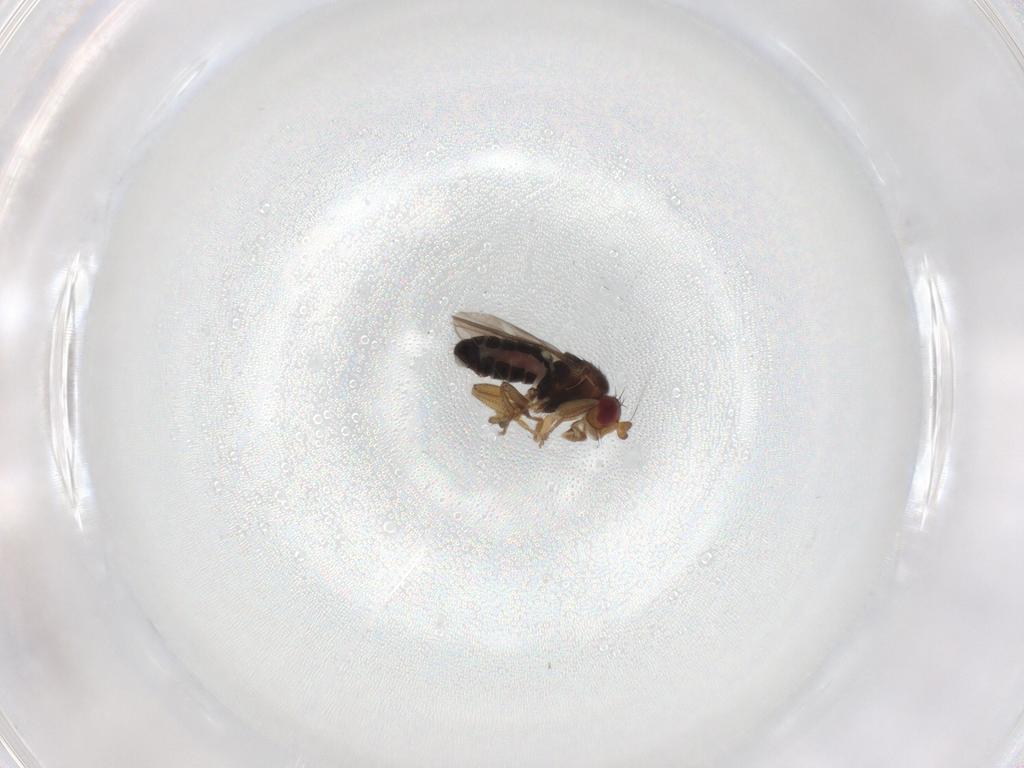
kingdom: Animalia
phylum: Arthropoda
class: Insecta
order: Diptera
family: Sphaeroceridae
